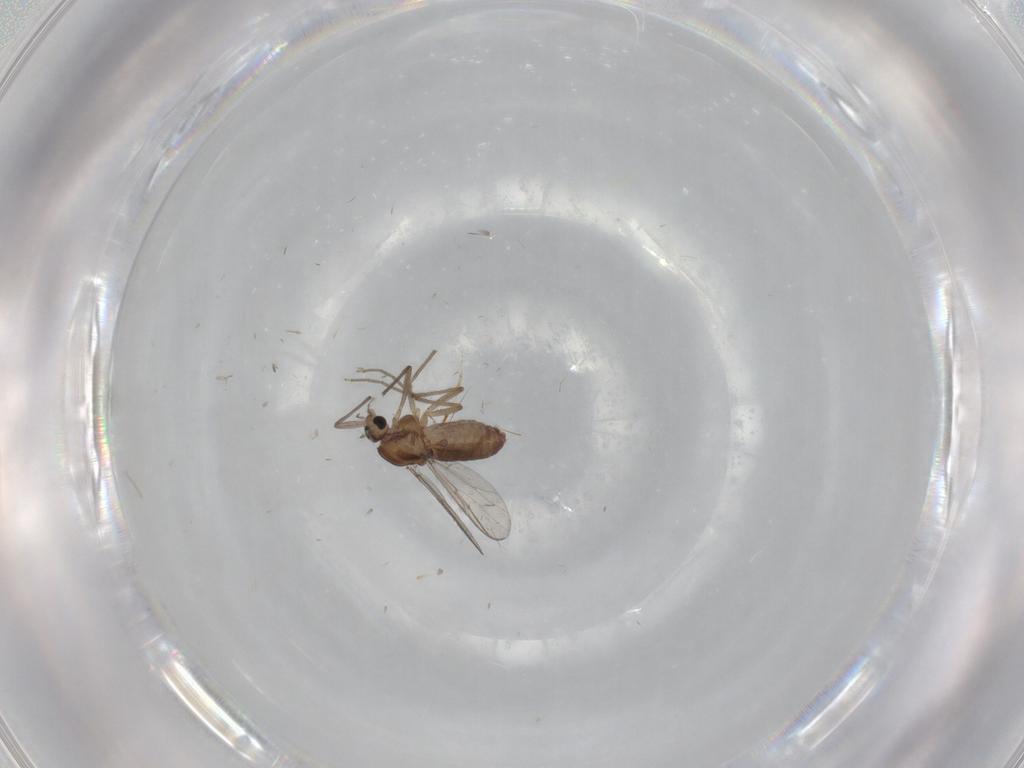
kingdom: Animalia
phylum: Arthropoda
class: Insecta
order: Diptera
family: Chironomidae
